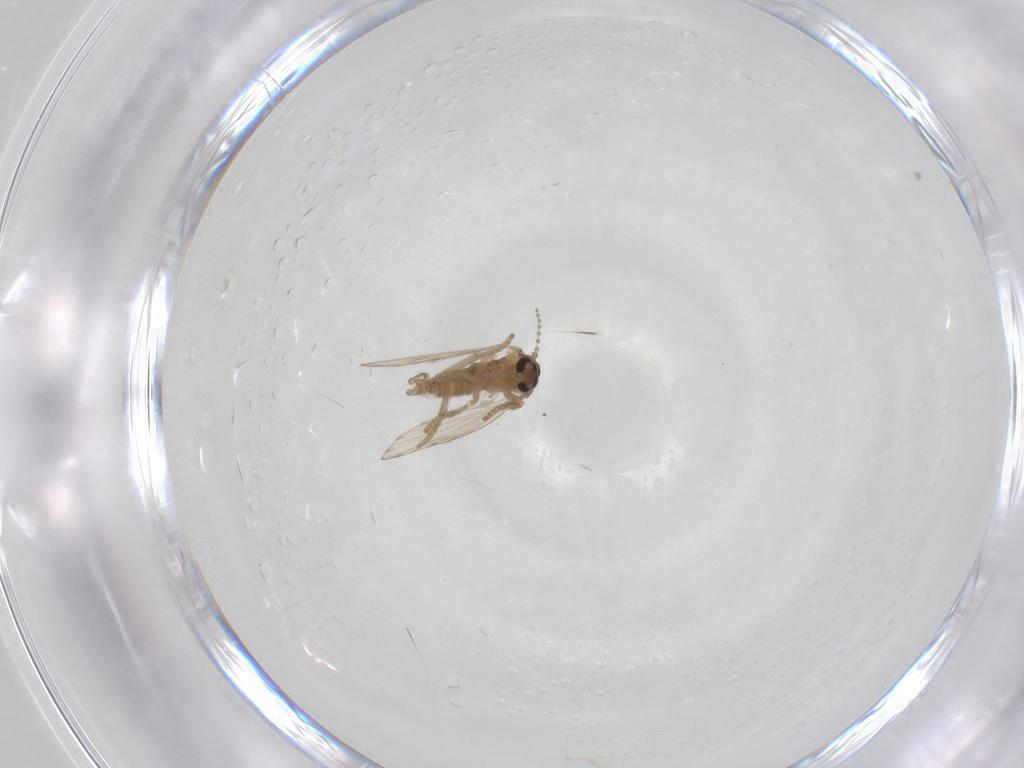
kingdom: Animalia
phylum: Arthropoda
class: Insecta
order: Diptera
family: Psychodidae
